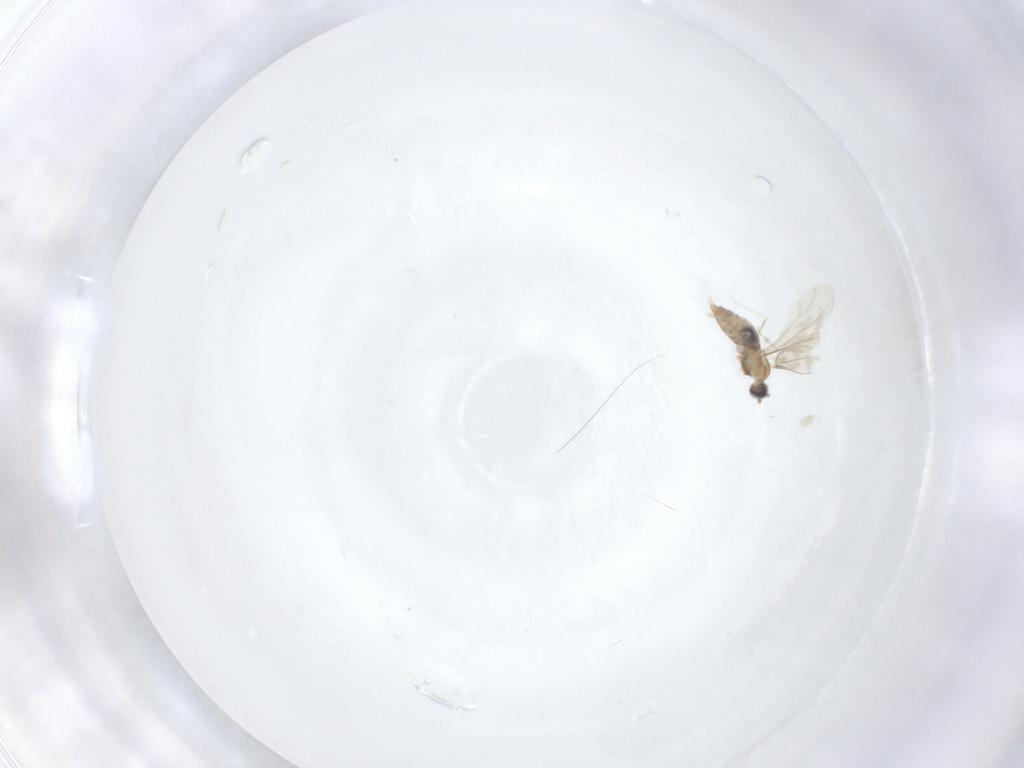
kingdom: Animalia
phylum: Arthropoda
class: Insecta
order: Diptera
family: Cecidomyiidae
